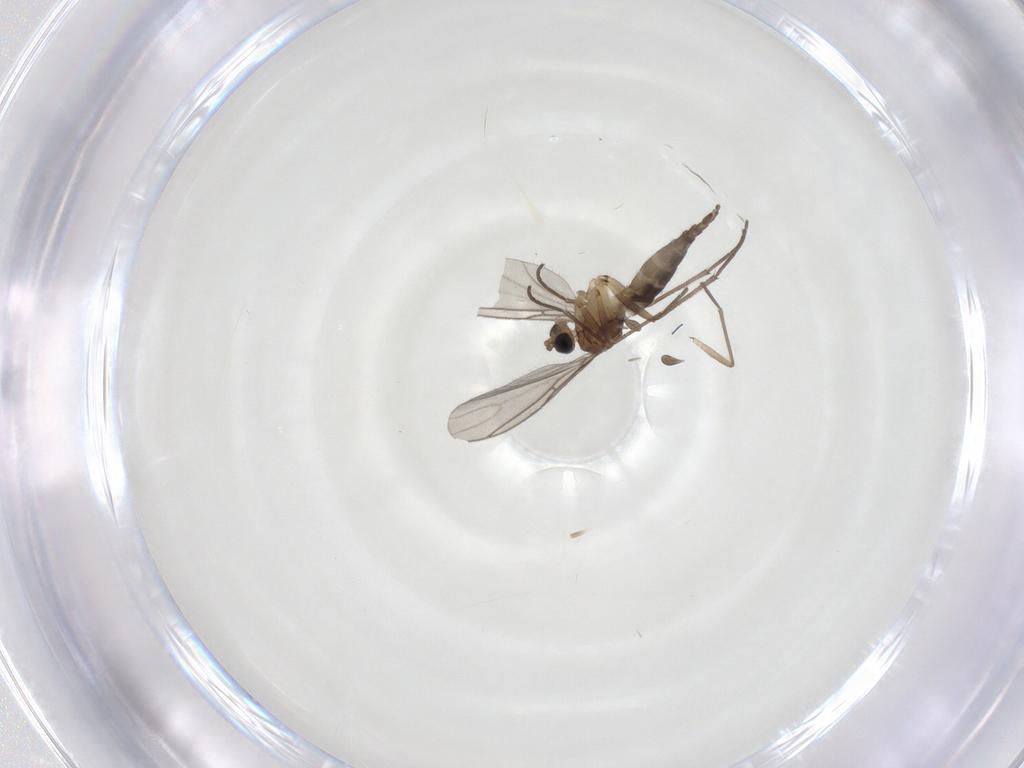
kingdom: Animalia
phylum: Arthropoda
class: Insecta
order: Diptera
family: Sciaridae
